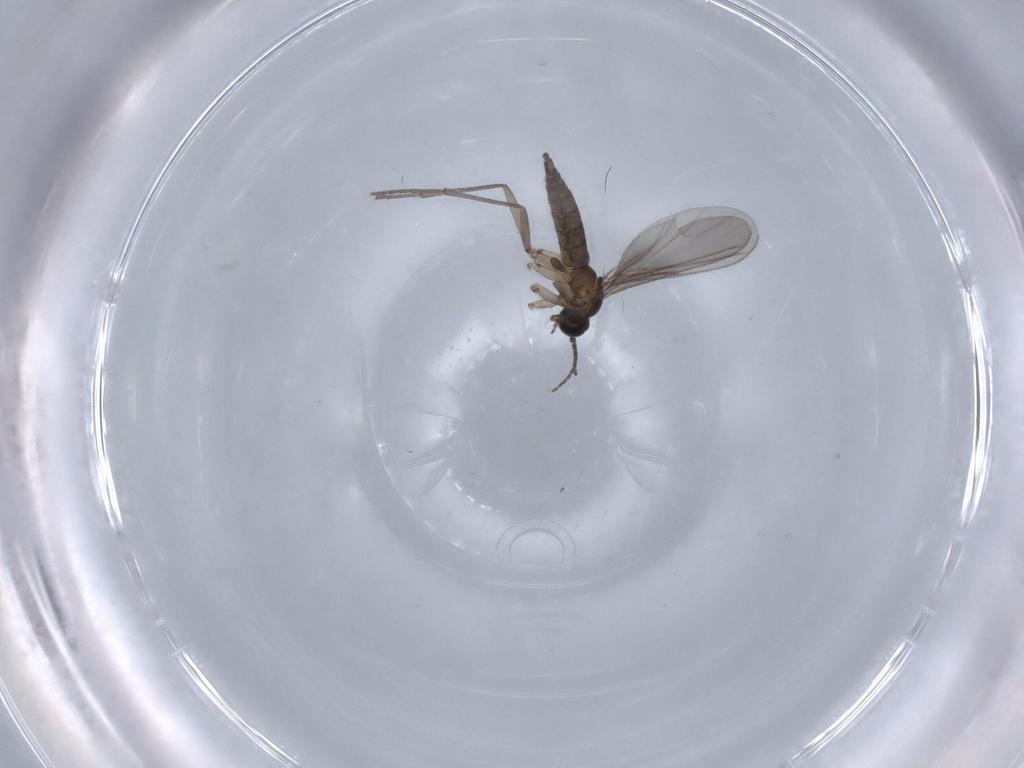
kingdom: Animalia
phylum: Arthropoda
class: Insecta
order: Diptera
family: Sciaridae
